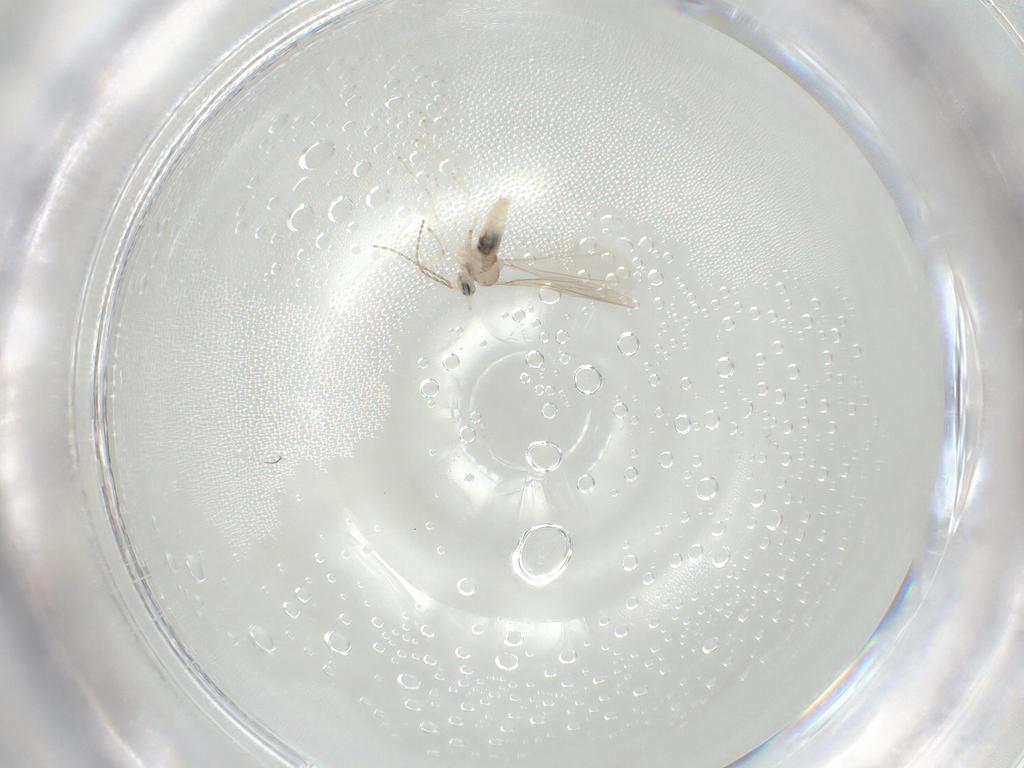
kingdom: Animalia
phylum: Arthropoda
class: Insecta
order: Diptera
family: Cecidomyiidae
